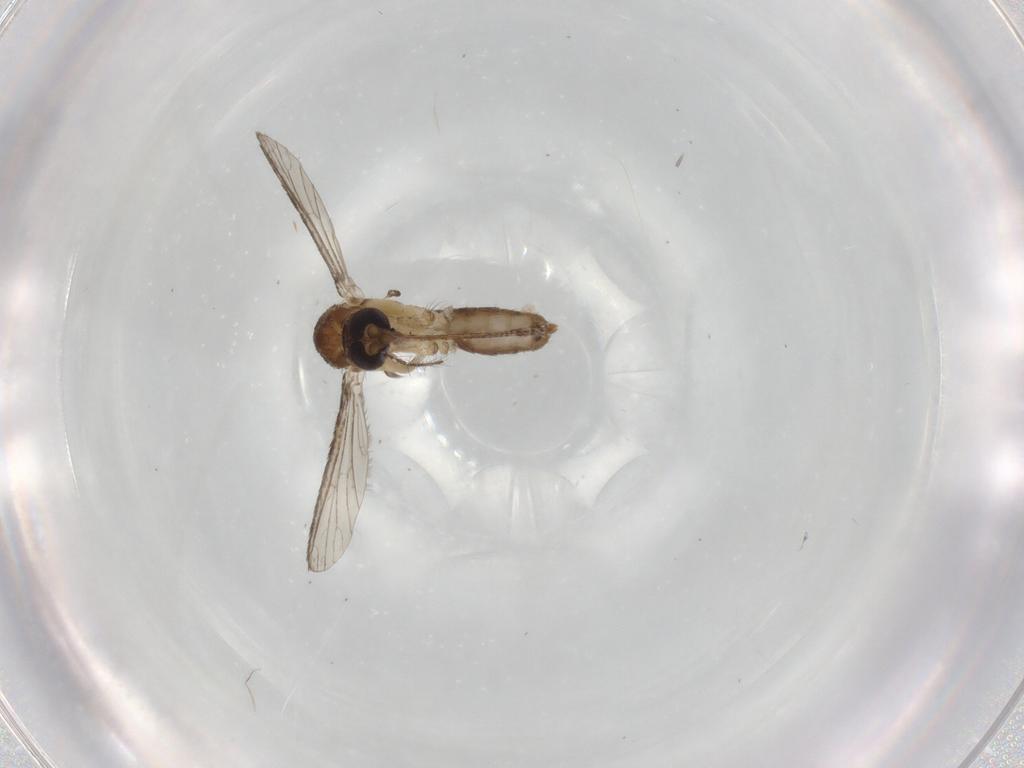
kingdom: Animalia
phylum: Arthropoda
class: Insecta
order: Diptera
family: Culicidae
